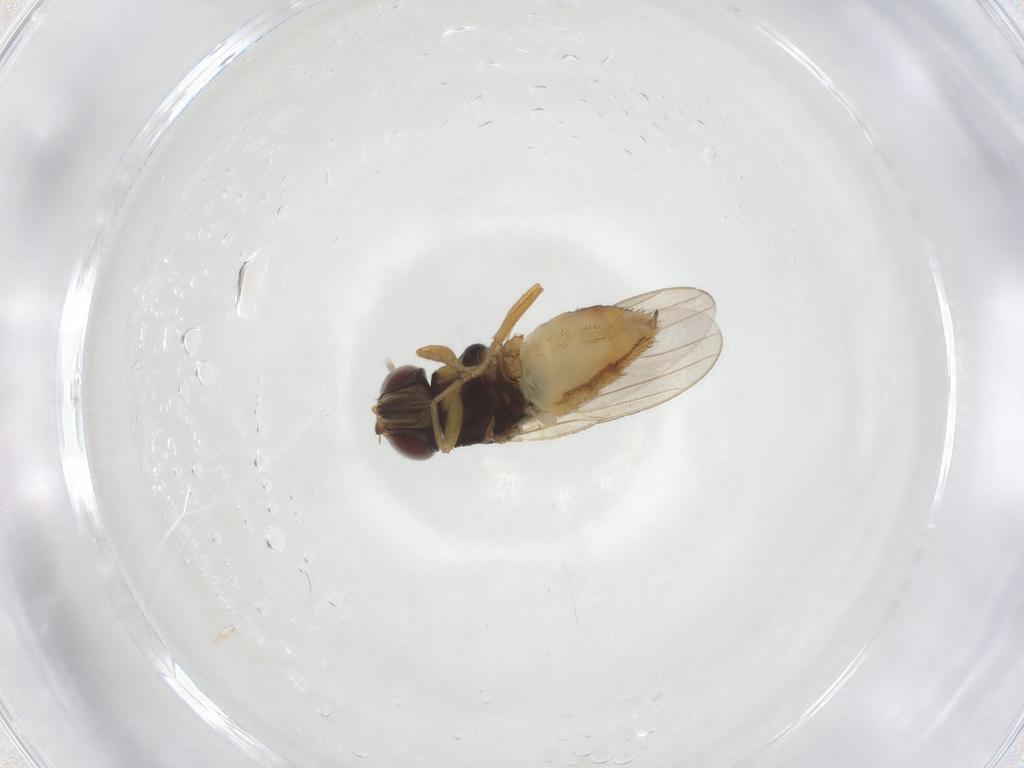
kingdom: Animalia
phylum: Arthropoda
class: Insecta
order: Diptera
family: Chloropidae
